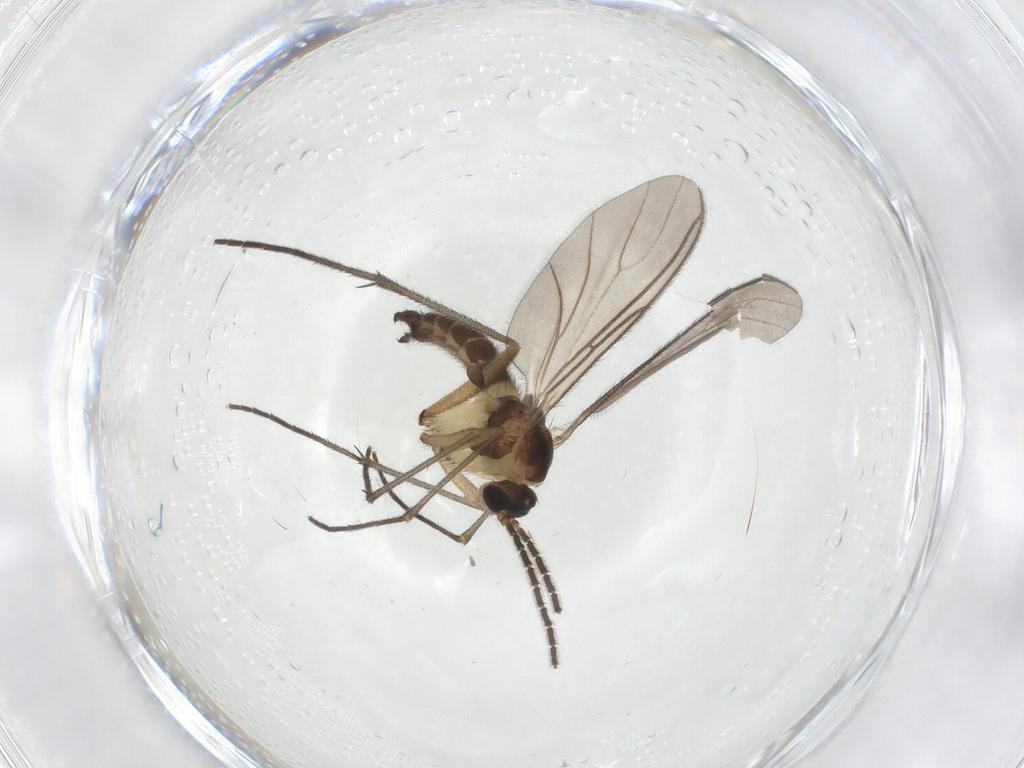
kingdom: Animalia
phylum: Arthropoda
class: Insecta
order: Diptera
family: Sciaridae
